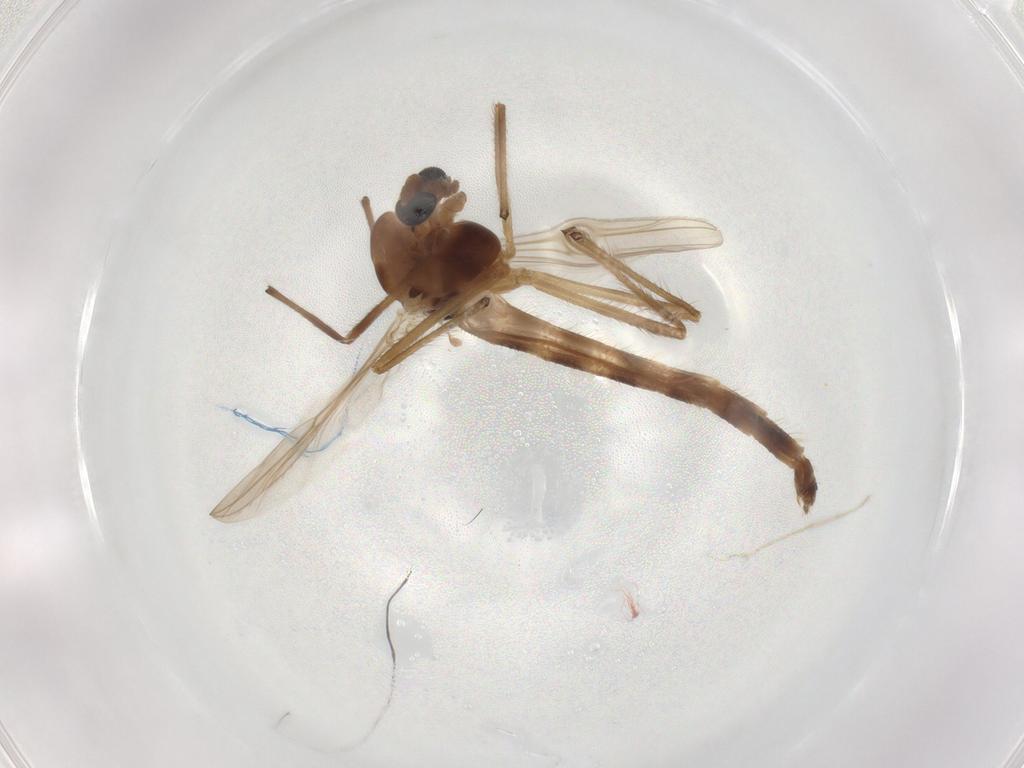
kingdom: Animalia
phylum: Arthropoda
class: Insecta
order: Diptera
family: Chironomidae
